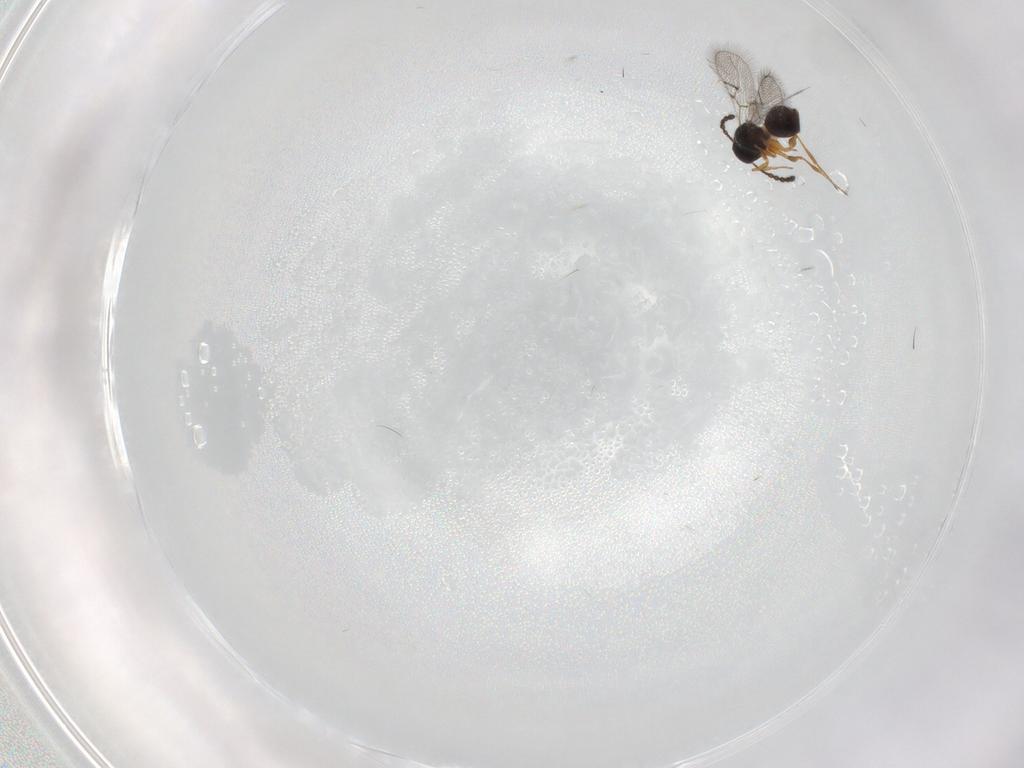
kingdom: Animalia
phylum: Arthropoda
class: Insecta
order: Hymenoptera
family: Figitidae
